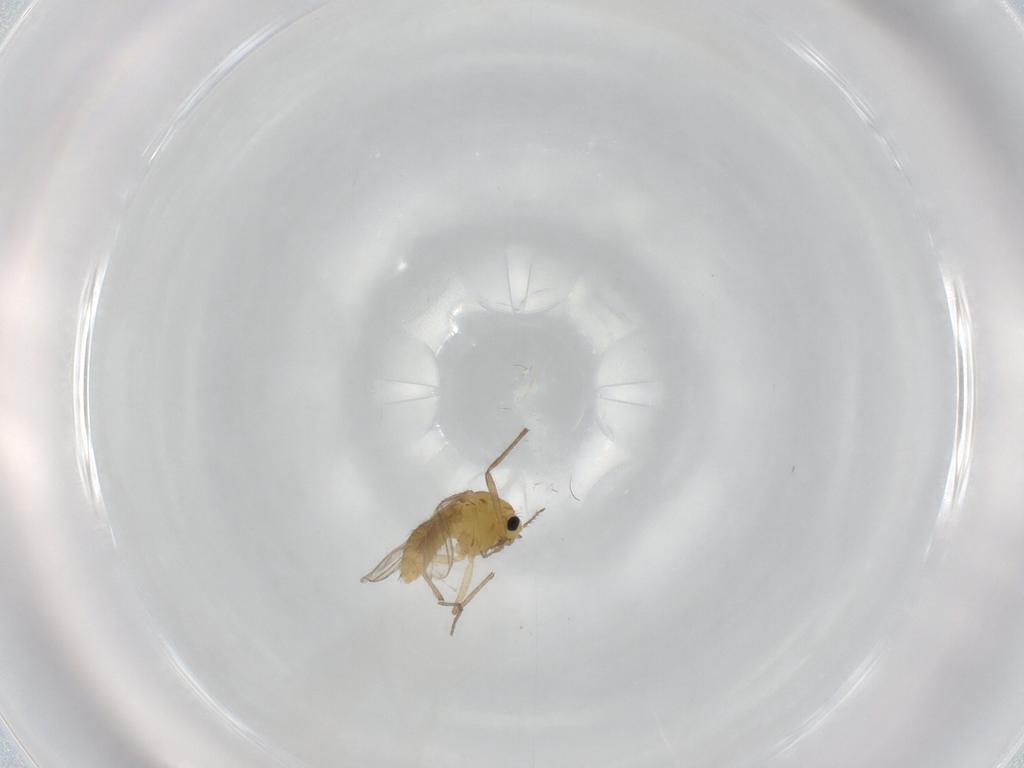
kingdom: Animalia
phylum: Arthropoda
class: Insecta
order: Diptera
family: Chironomidae
